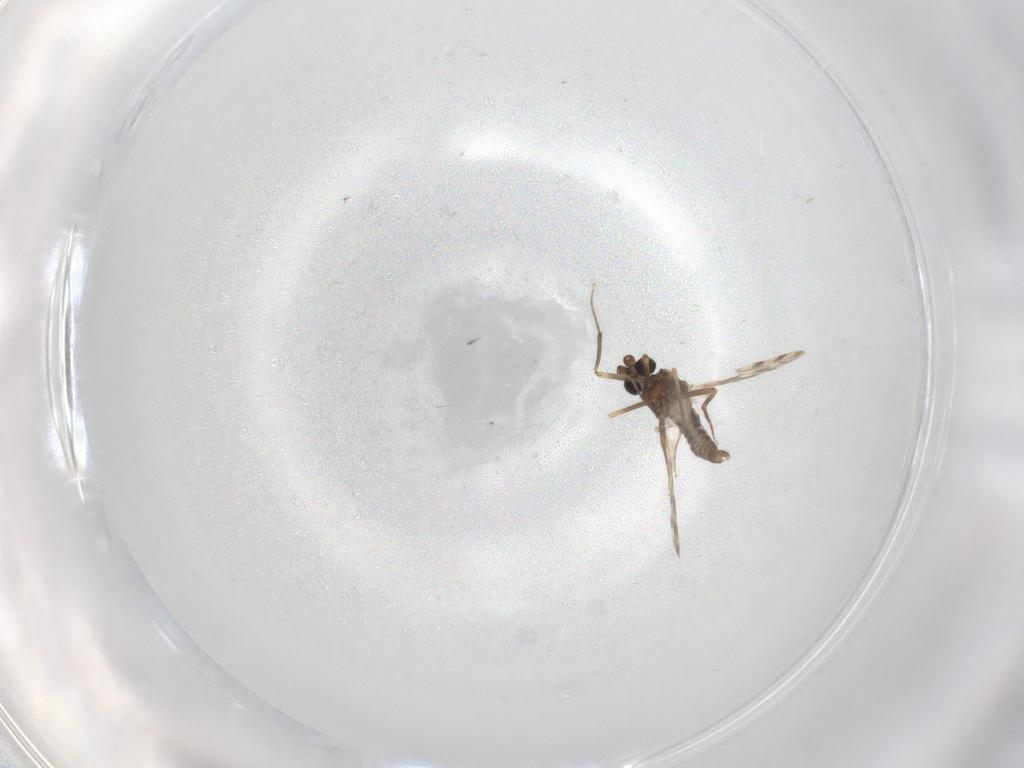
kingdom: Animalia
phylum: Arthropoda
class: Insecta
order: Diptera
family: Ceratopogonidae
